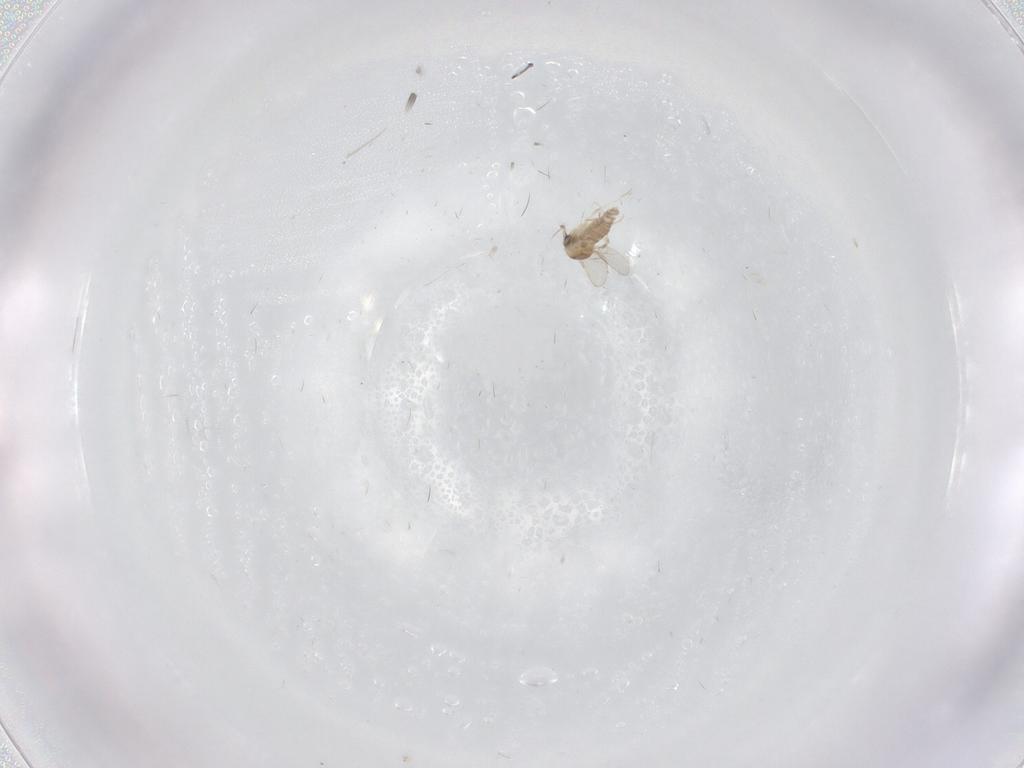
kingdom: Animalia
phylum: Arthropoda
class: Insecta
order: Diptera
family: Ceratopogonidae
